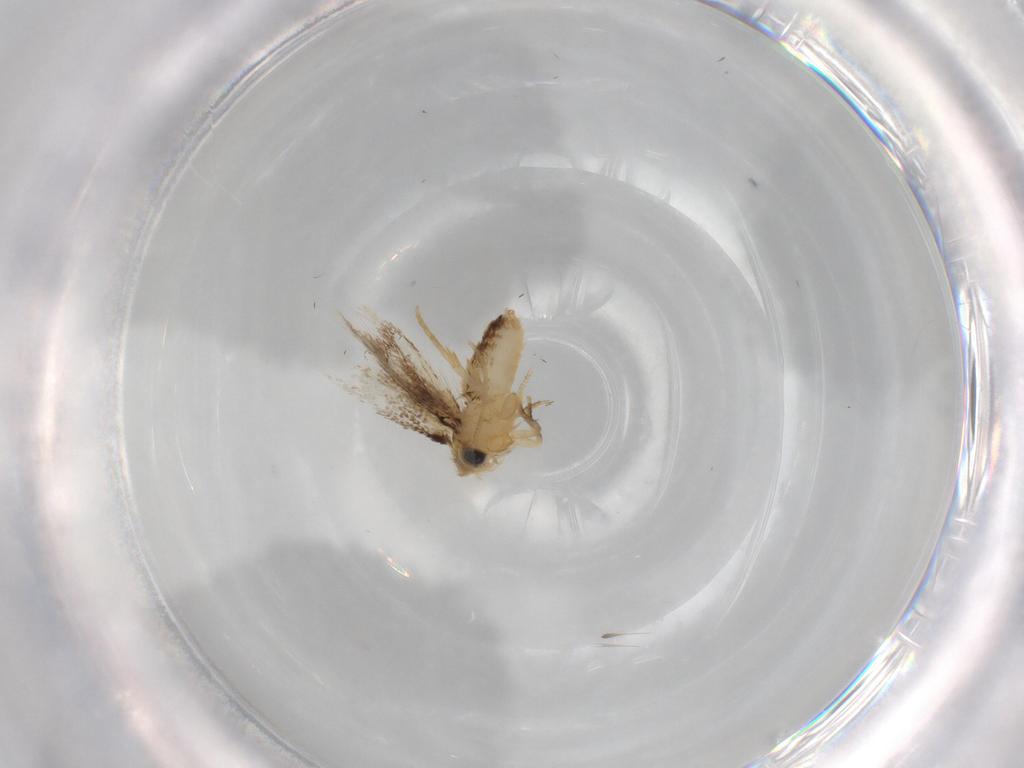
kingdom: Animalia
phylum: Arthropoda
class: Insecta
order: Lepidoptera
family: Nepticulidae
